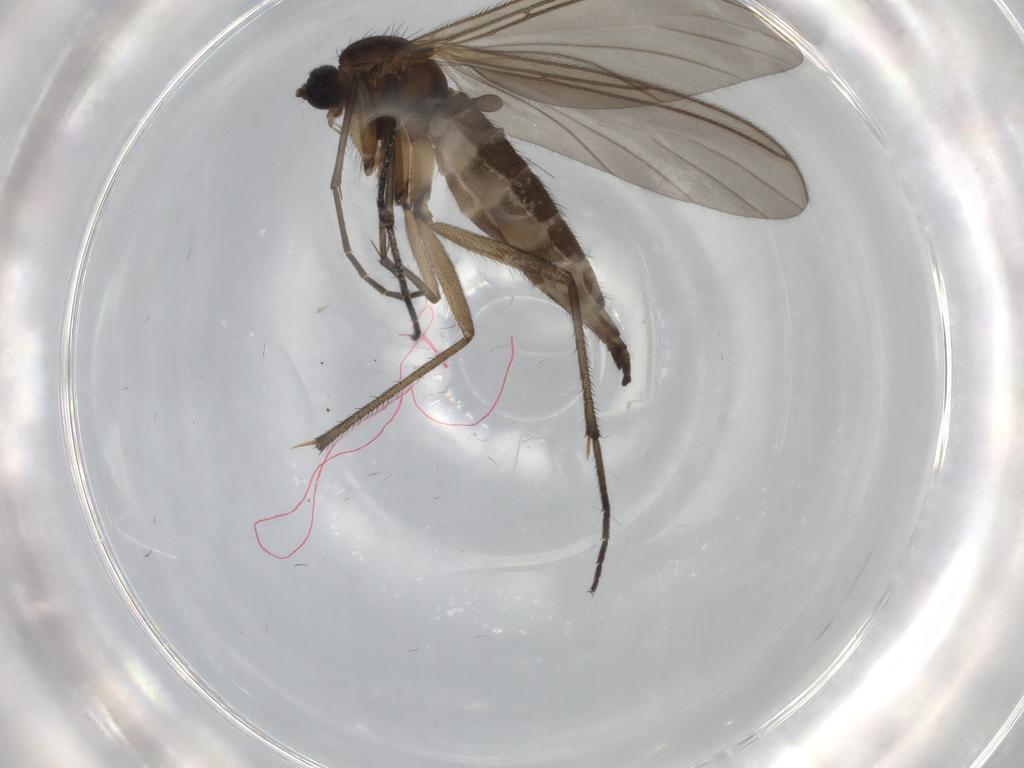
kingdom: Animalia
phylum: Arthropoda
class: Insecta
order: Diptera
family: Sciaridae
